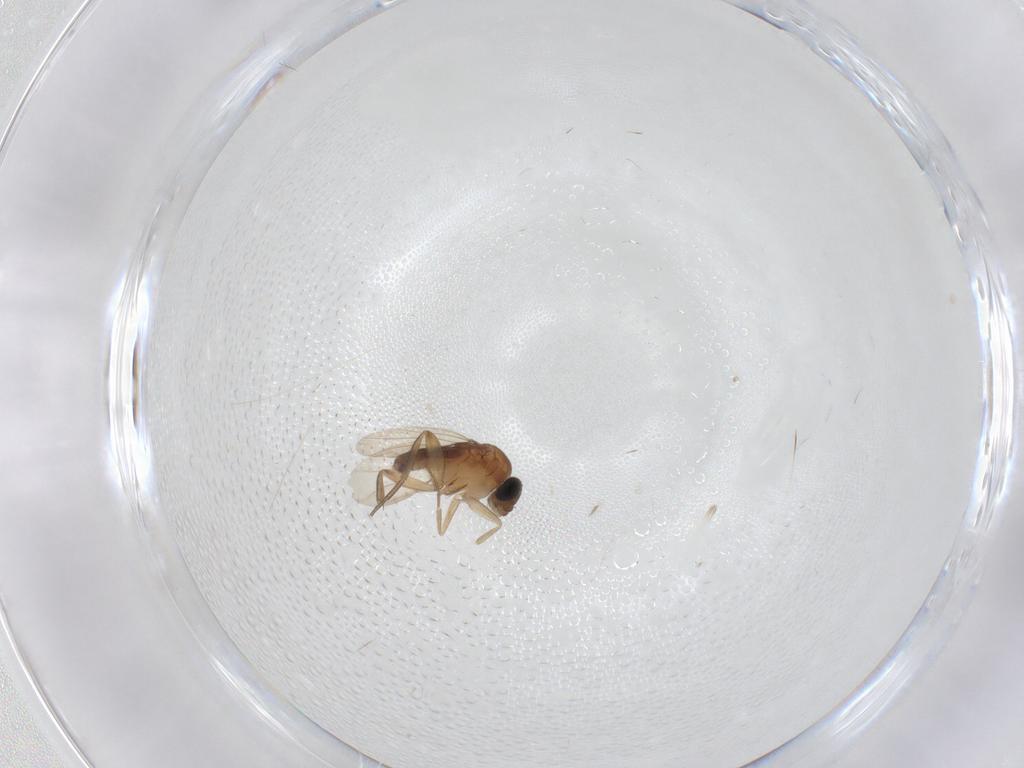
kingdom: Animalia
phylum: Arthropoda
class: Insecta
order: Diptera
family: Phoridae
